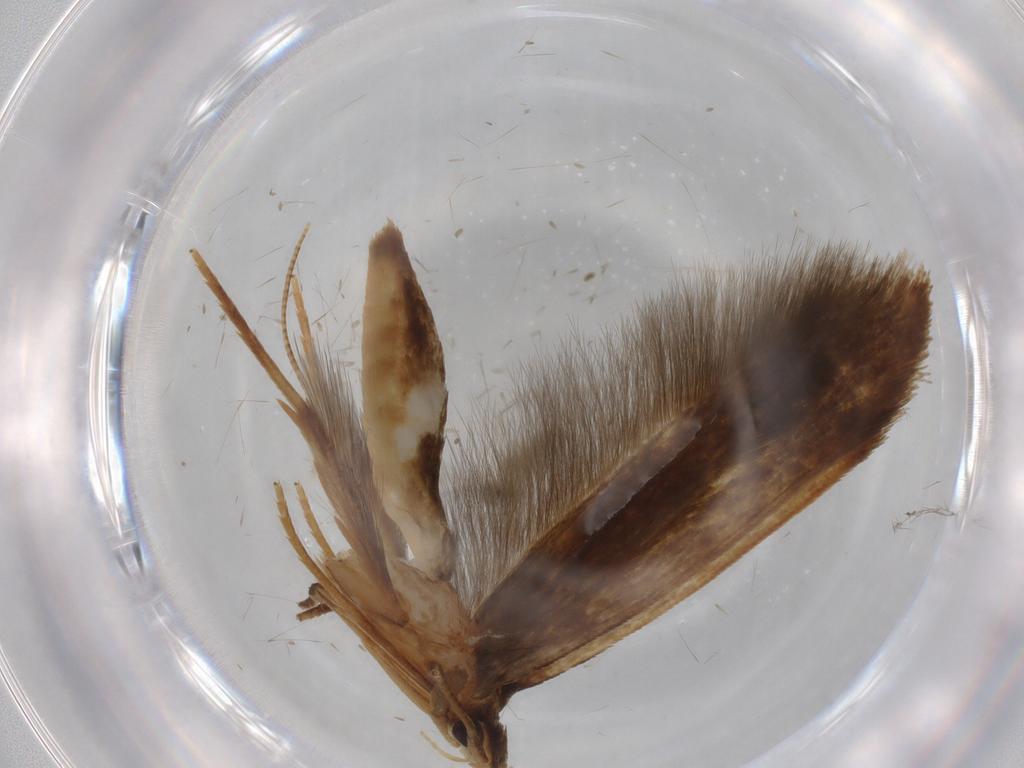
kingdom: Animalia
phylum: Arthropoda
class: Insecta
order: Lepidoptera
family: Tineidae
